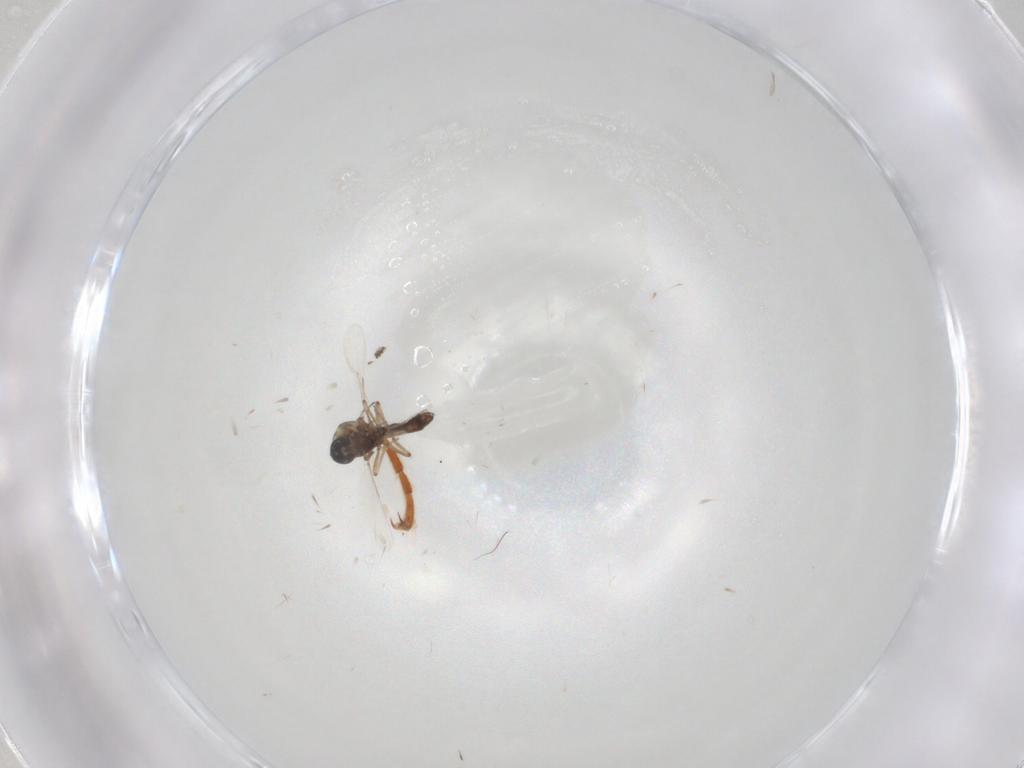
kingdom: Animalia
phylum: Arthropoda
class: Insecta
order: Diptera
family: Ceratopogonidae
